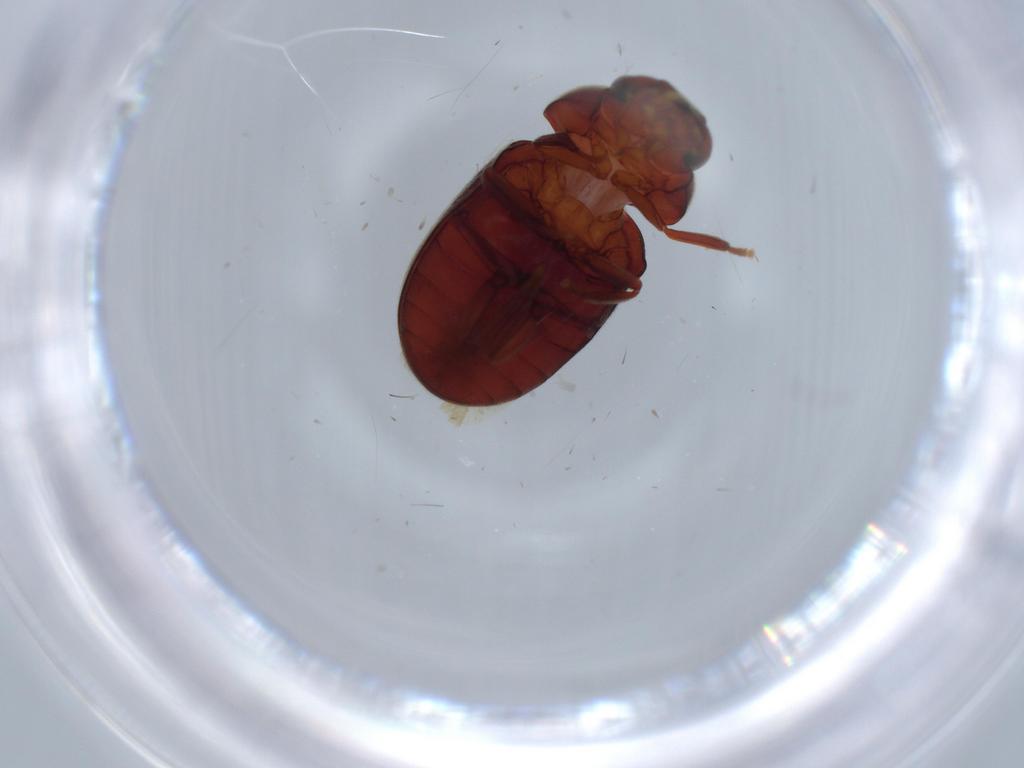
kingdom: Animalia
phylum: Arthropoda
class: Insecta
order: Coleoptera
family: Ptinidae
